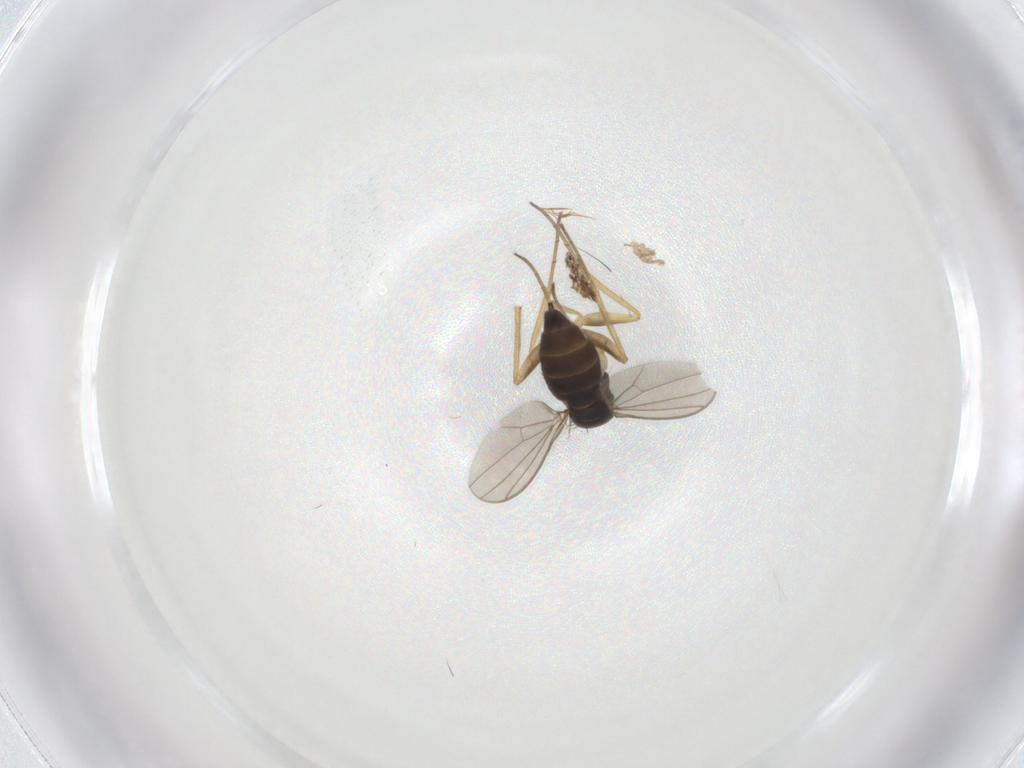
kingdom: Animalia
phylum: Arthropoda
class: Insecta
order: Diptera
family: Dolichopodidae
